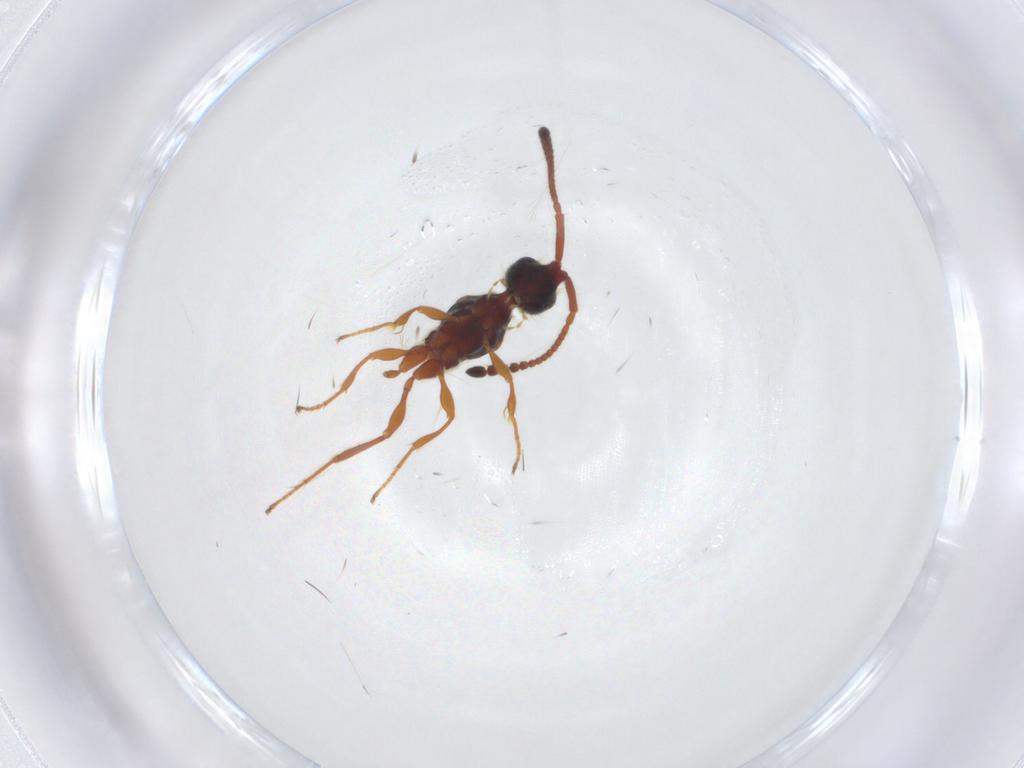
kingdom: Animalia
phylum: Arthropoda
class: Insecta
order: Hymenoptera
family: Diapriidae
